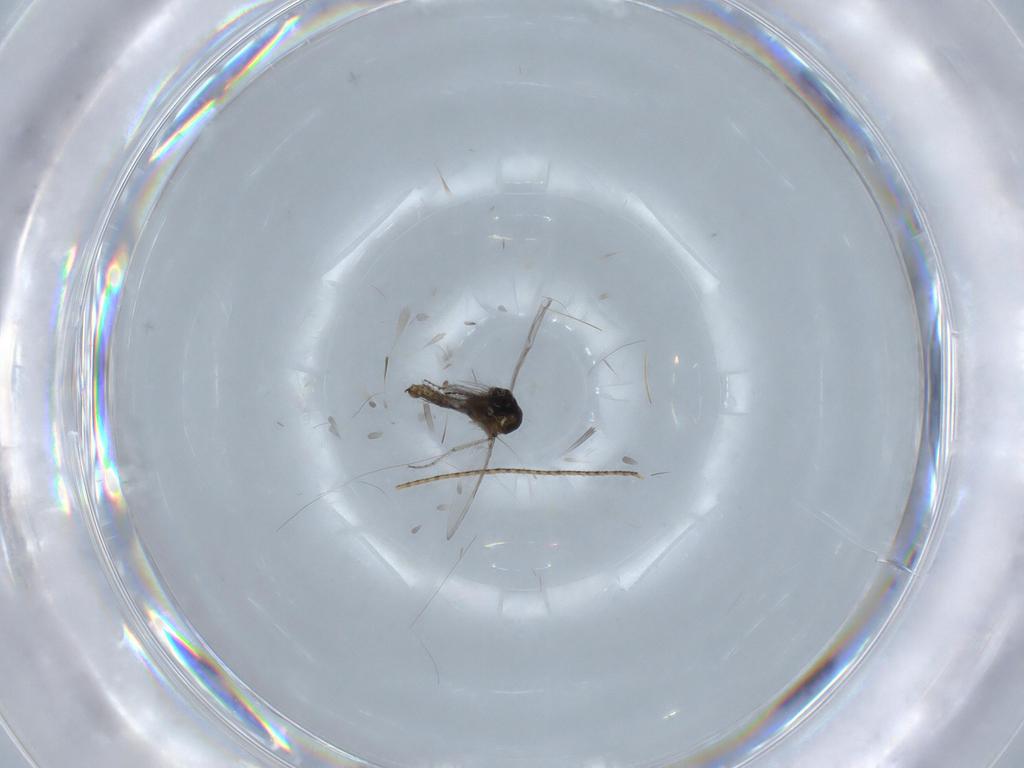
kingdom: Animalia
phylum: Arthropoda
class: Insecta
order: Diptera
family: Ceratopogonidae
